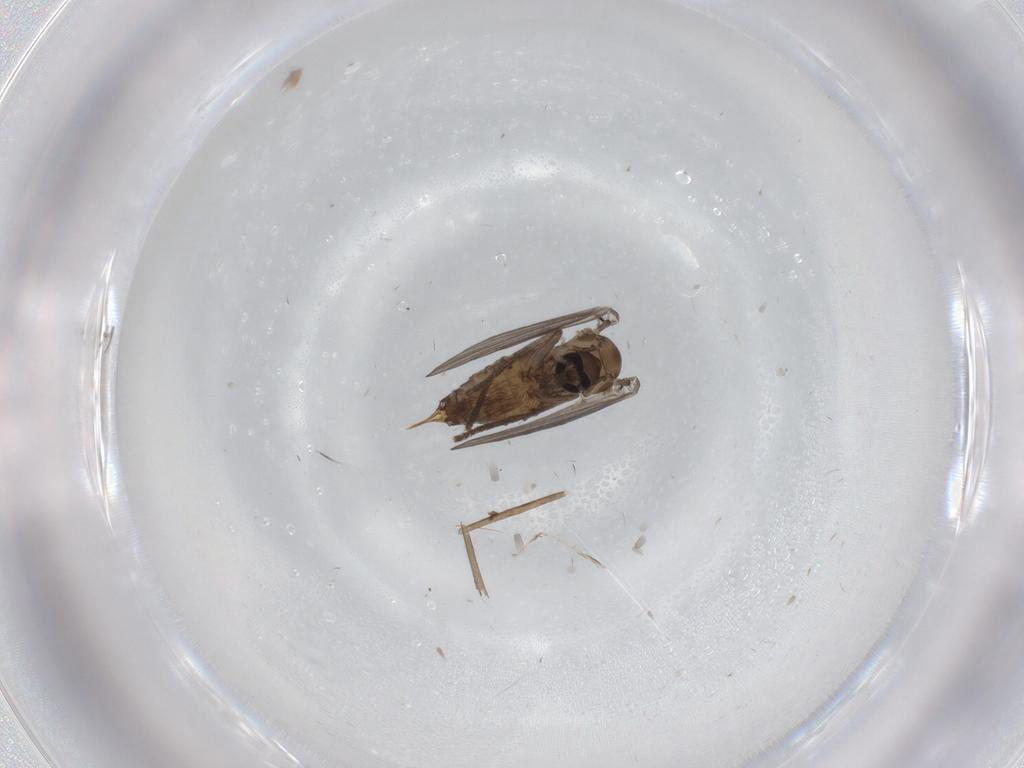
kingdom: Animalia
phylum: Arthropoda
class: Insecta
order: Diptera
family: Psychodidae
